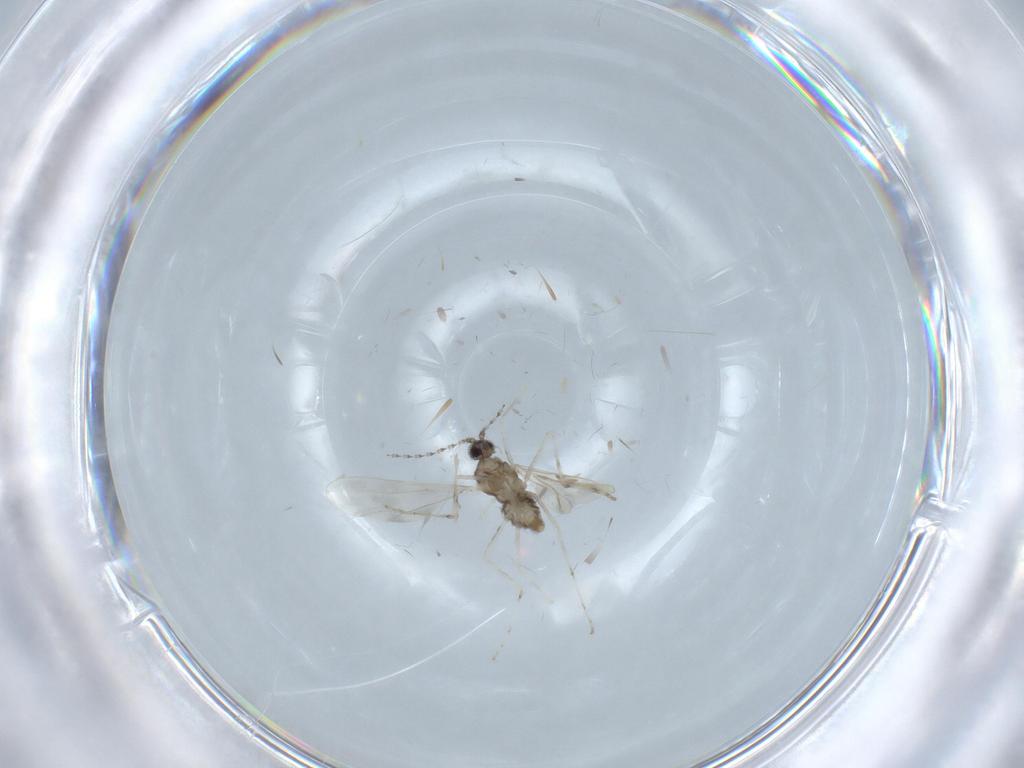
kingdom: Animalia
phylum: Arthropoda
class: Insecta
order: Diptera
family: Cecidomyiidae
